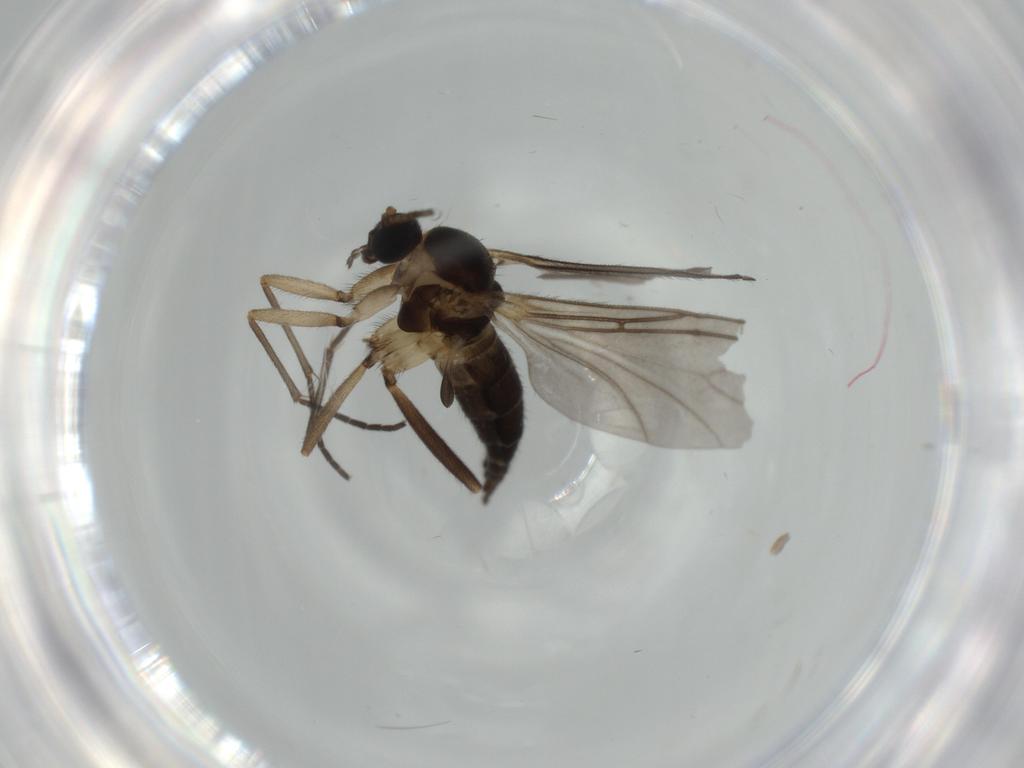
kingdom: Animalia
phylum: Arthropoda
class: Insecta
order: Diptera
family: Sciaridae
